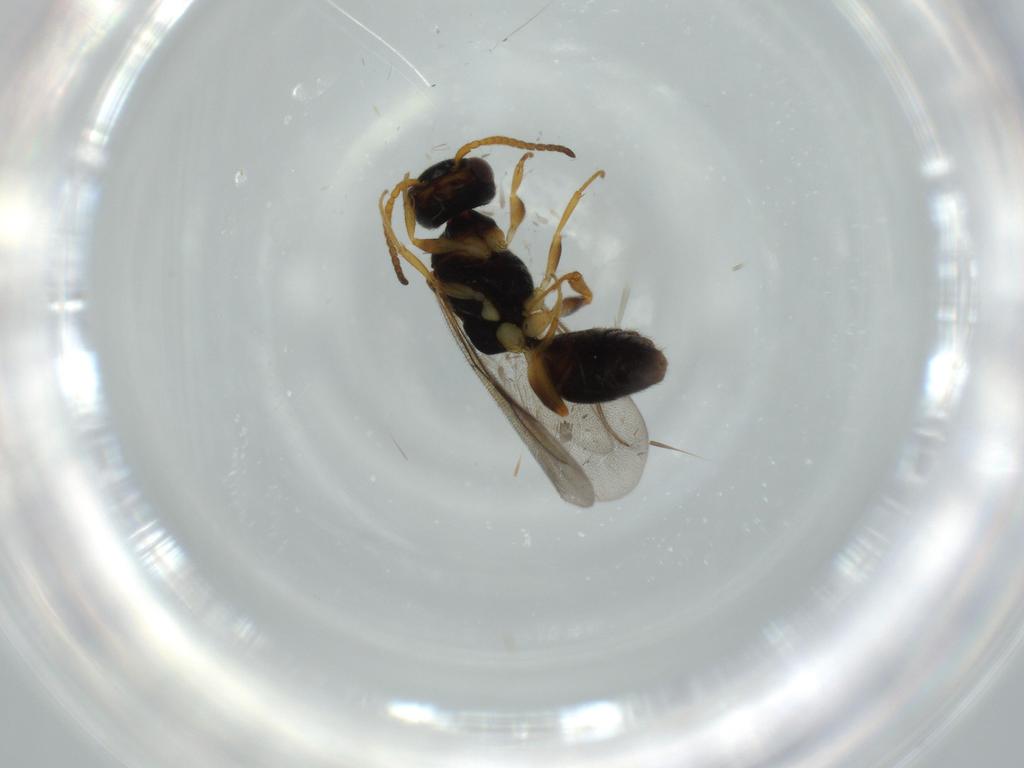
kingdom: Animalia
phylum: Arthropoda
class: Insecta
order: Hymenoptera
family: Bethylidae
